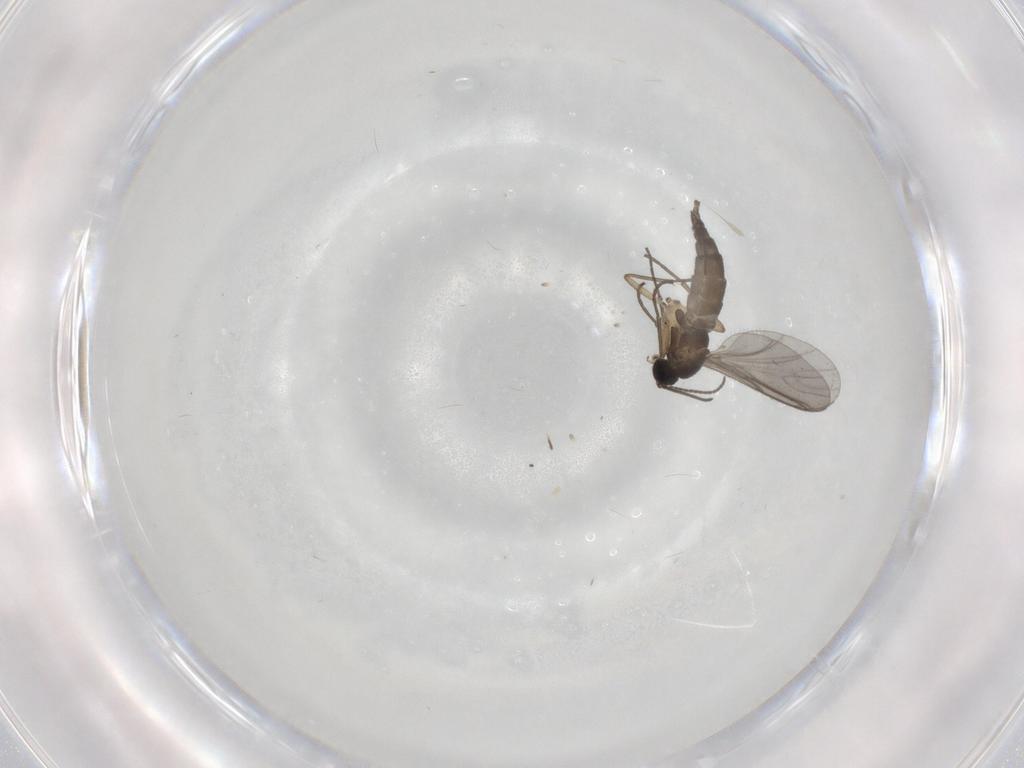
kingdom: Animalia
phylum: Arthropoda
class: Insecta
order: Diptera
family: Sciaridae
